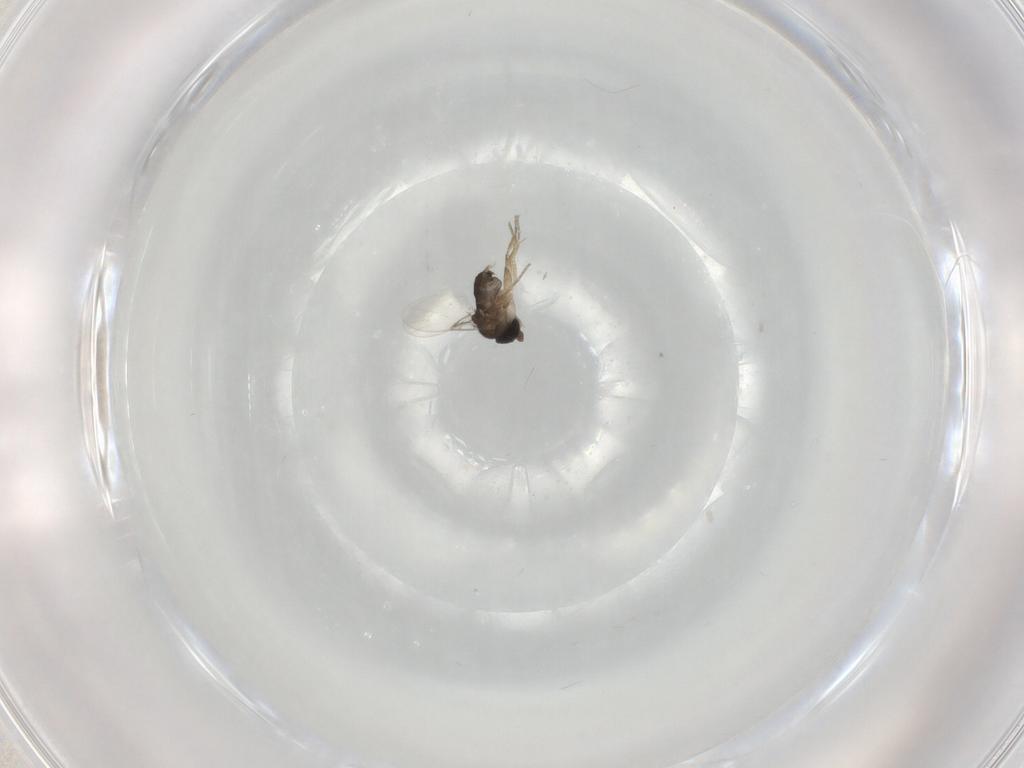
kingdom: Animalia
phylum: Arthropoda
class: Insecta
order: Diptera
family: Phoridae
